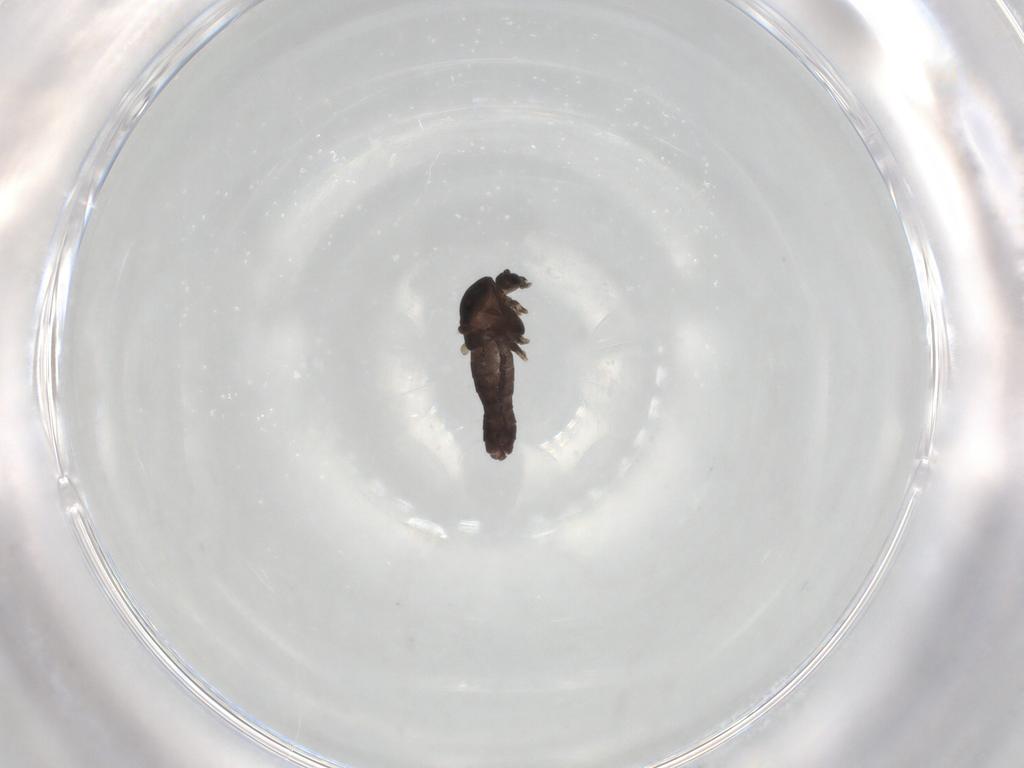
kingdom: Animalia
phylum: Arthropoda
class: Insecta
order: Diptera
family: Chironomidae
